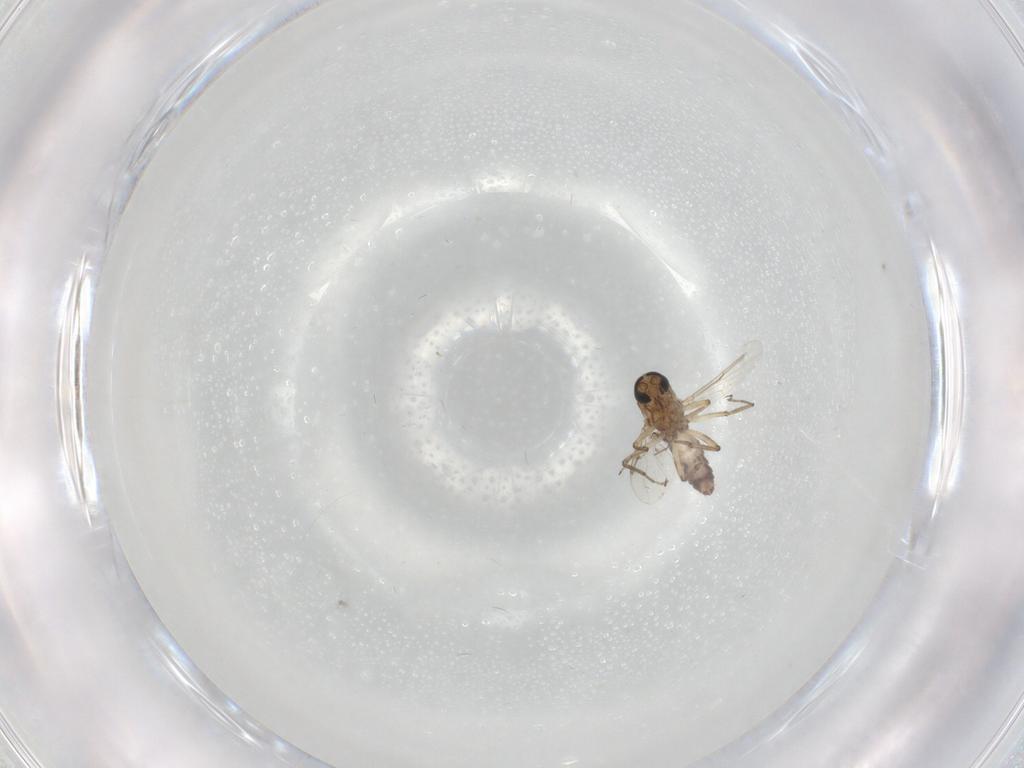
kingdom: Animalia
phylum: Arthropoda
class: Insecta
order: Diptera
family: Ceratopogonidae
